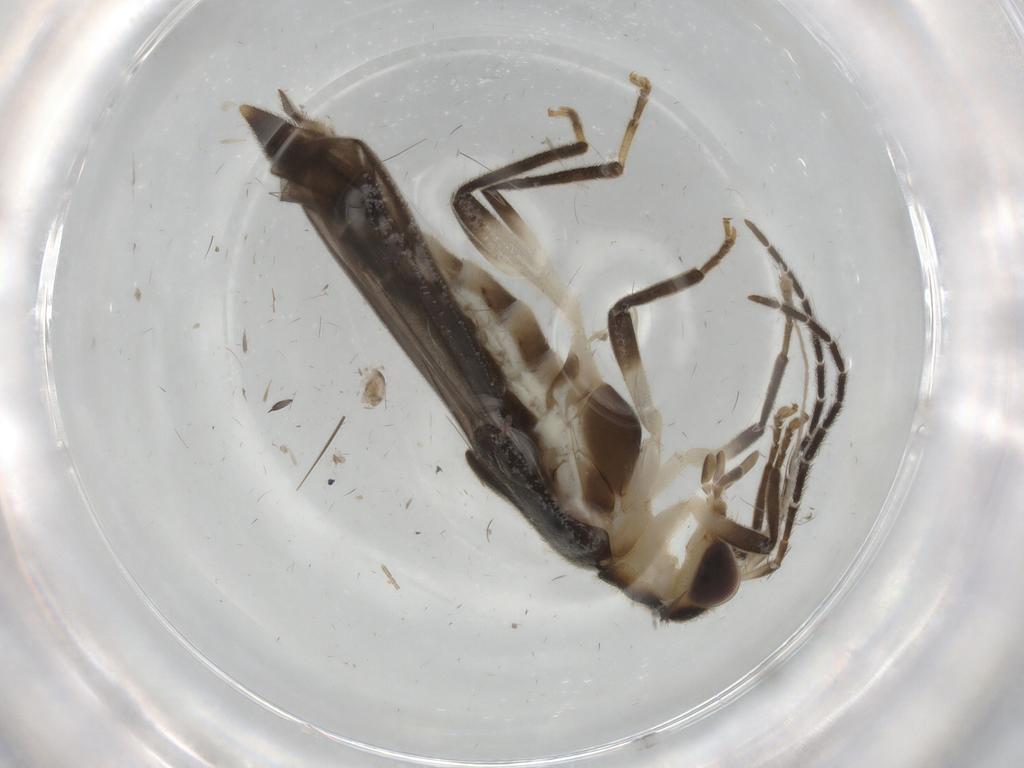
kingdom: Animalia
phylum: Arthropoda
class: Insecta
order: Coleoptera
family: Cantharidae
